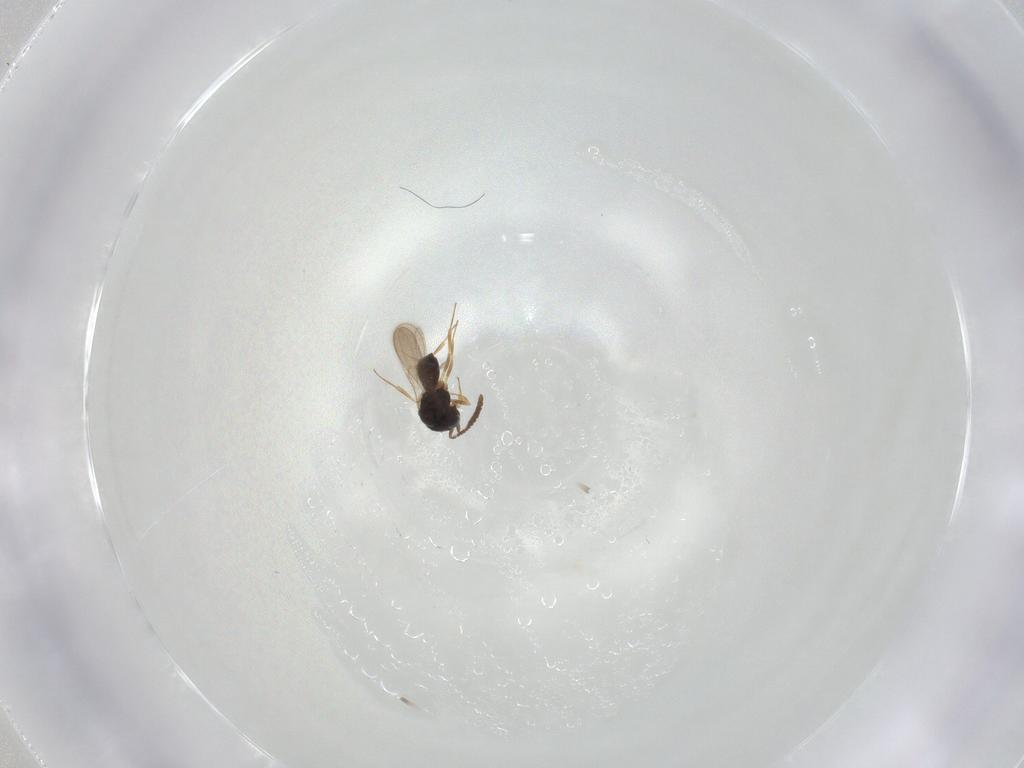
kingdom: Animalia
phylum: Arthropoda
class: Insecta
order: Hymenoptera
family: Scelionidae
